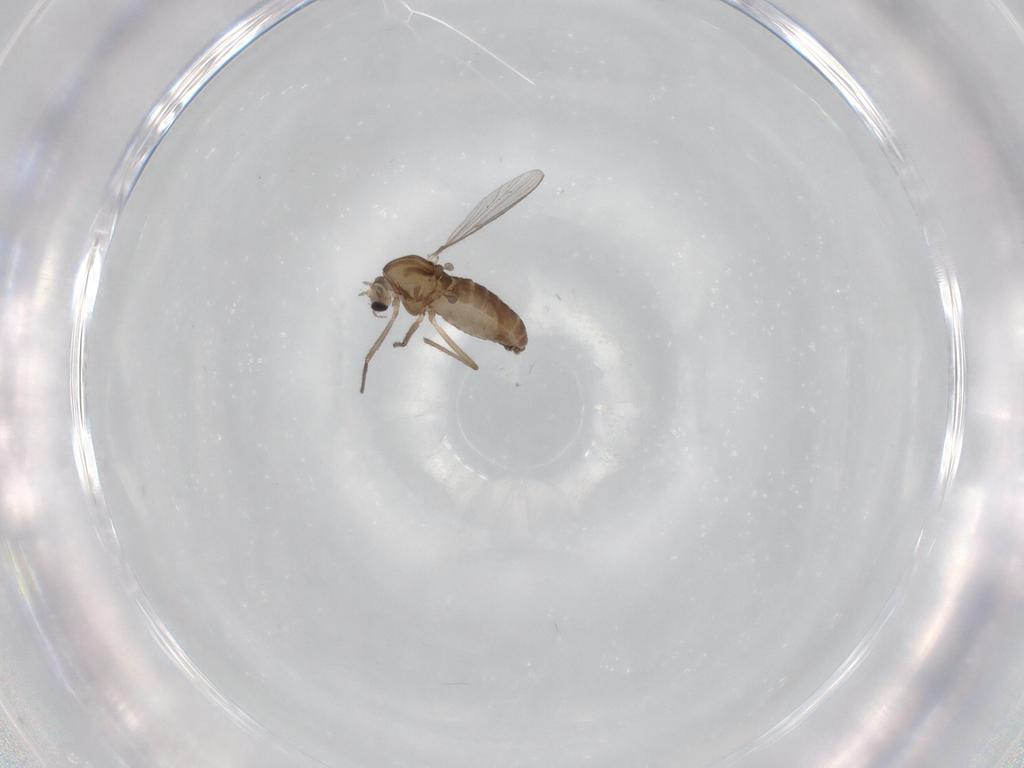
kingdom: Animalia
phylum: Arthropoda
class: Insecta
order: Diptera
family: Chironomidae
